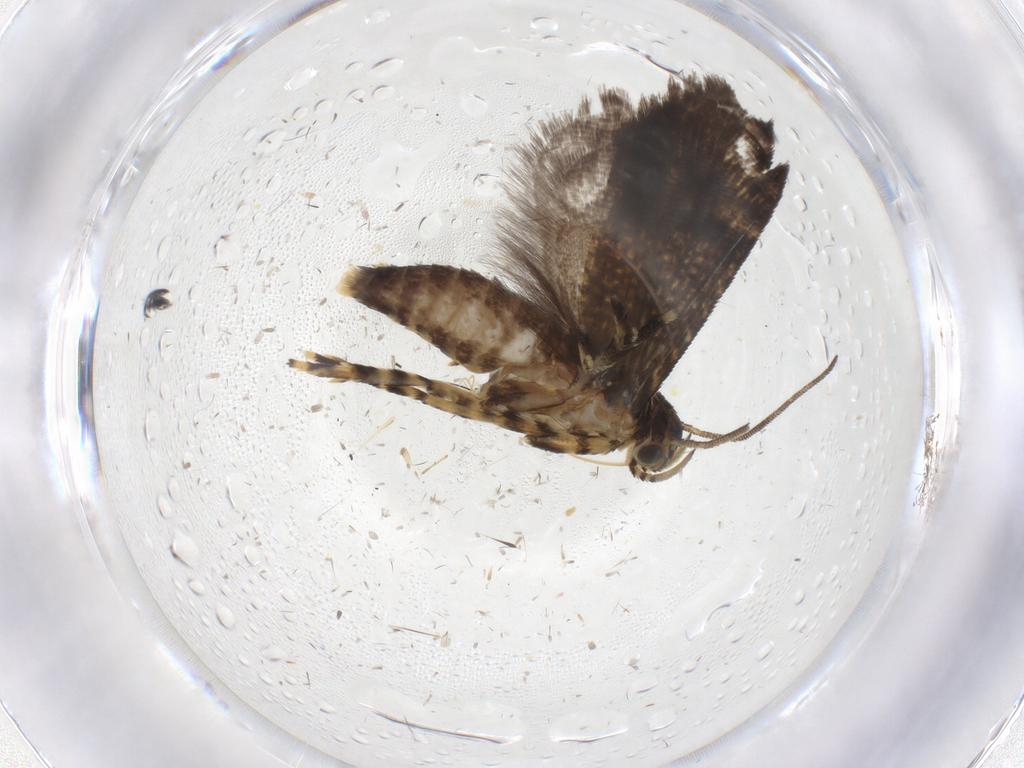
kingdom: Animalia
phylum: Arthropoda
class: Insecta
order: Lepidoptera
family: Geometridae
